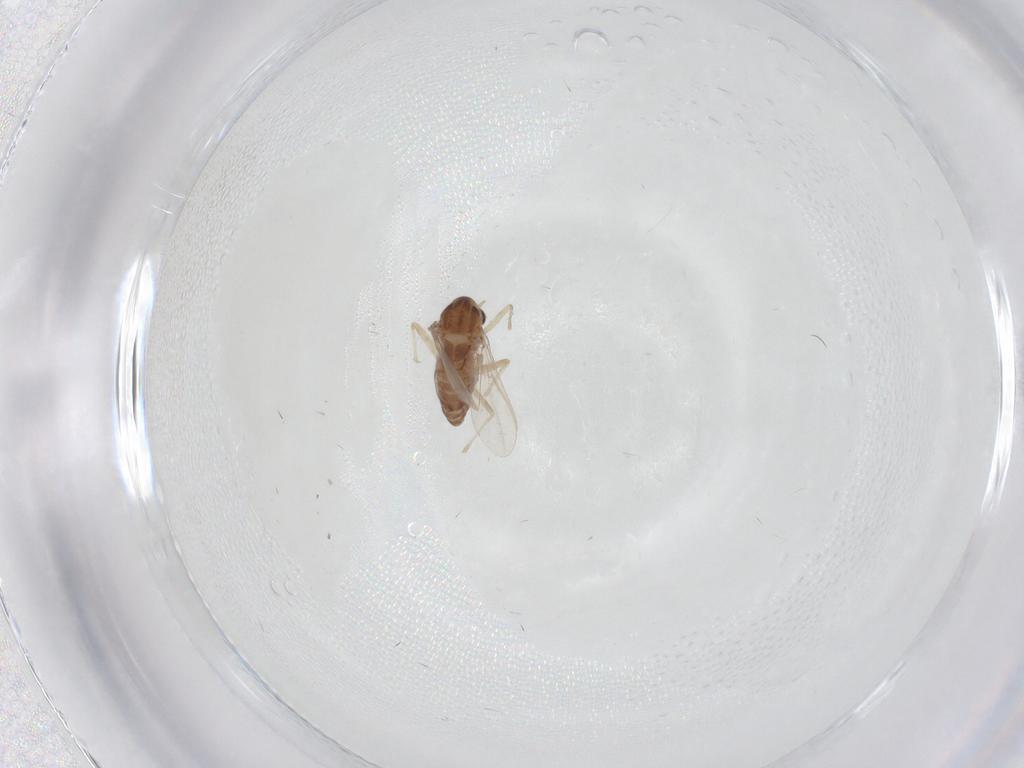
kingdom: Animalia
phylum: Arthropoda
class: Insecta
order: Diptera
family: Chironomidae
